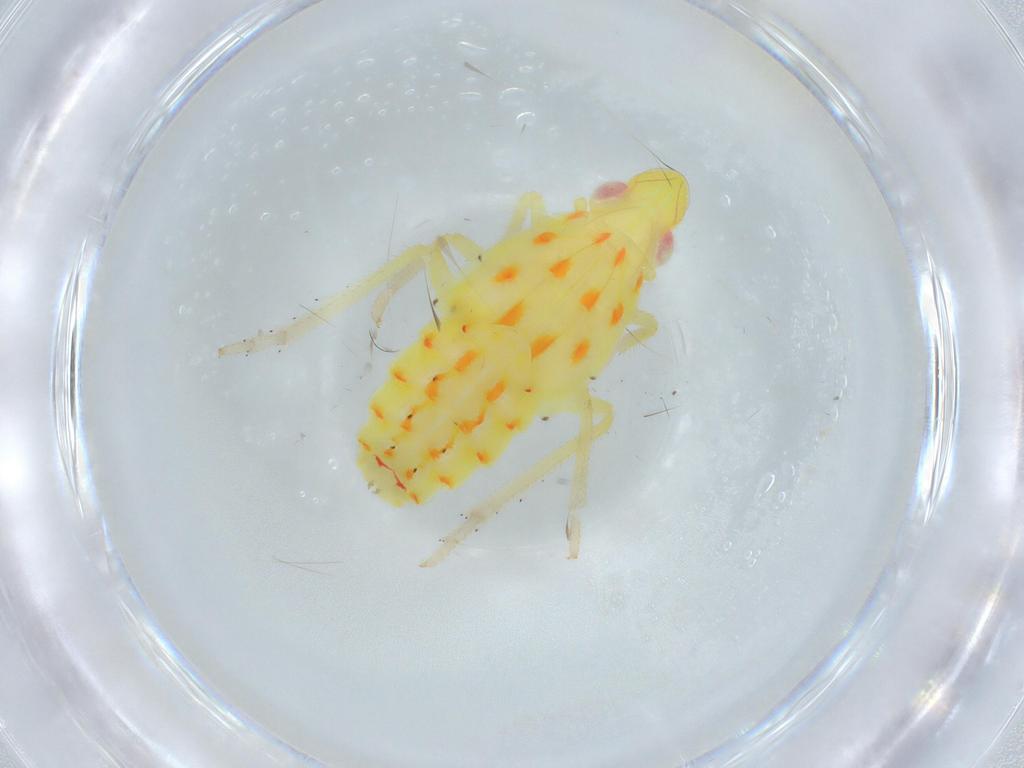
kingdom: Animalia
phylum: Arthropoda
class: Insecta
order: Hemiptera
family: Tropiduchidae
